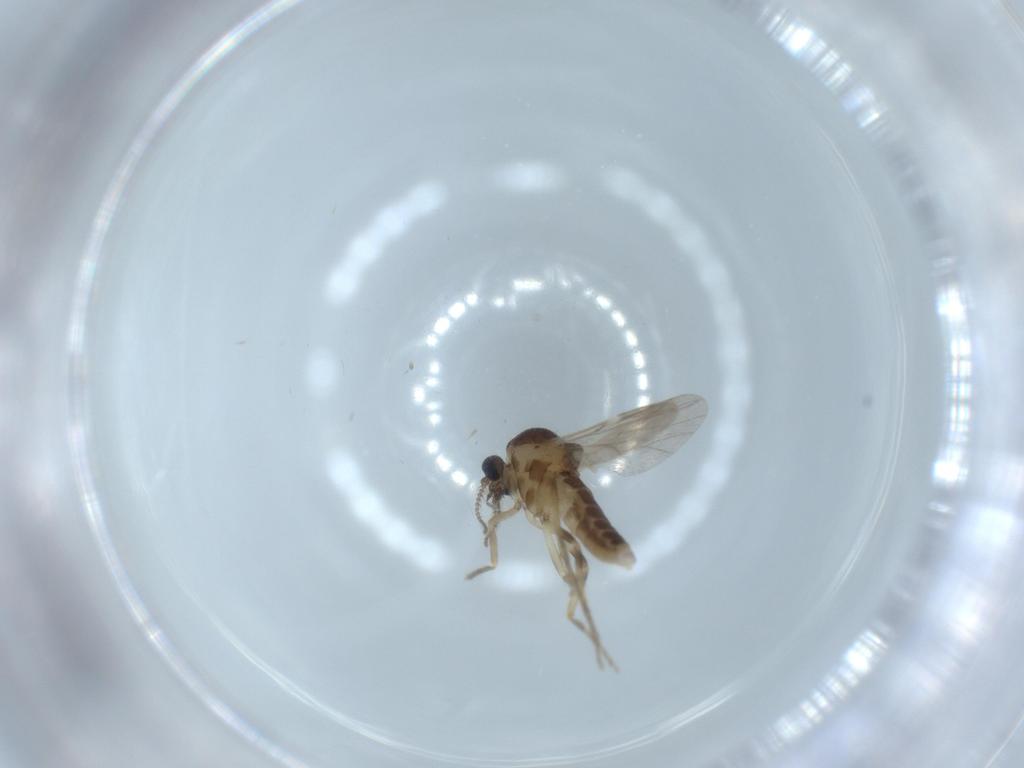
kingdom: Animalia
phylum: Arthropoda
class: Insecta
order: Diptera
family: Ceratopogonidae
